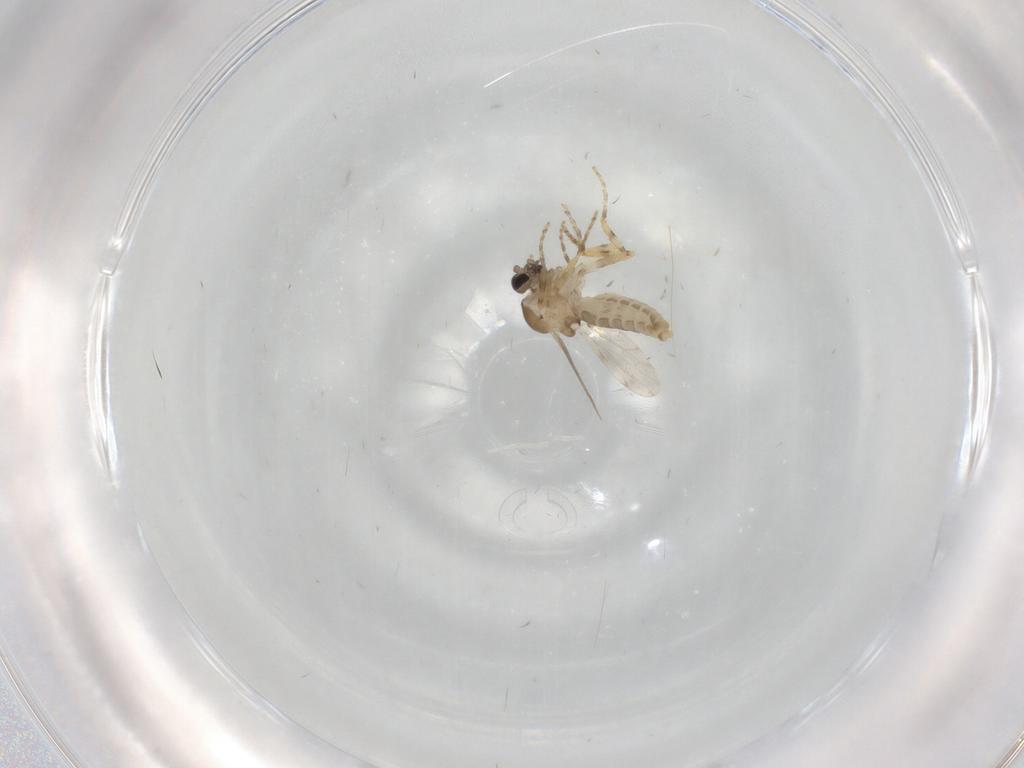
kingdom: Animalia
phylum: Arthropoda
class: Insecta
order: Diptera
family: Ceratopogonidae
